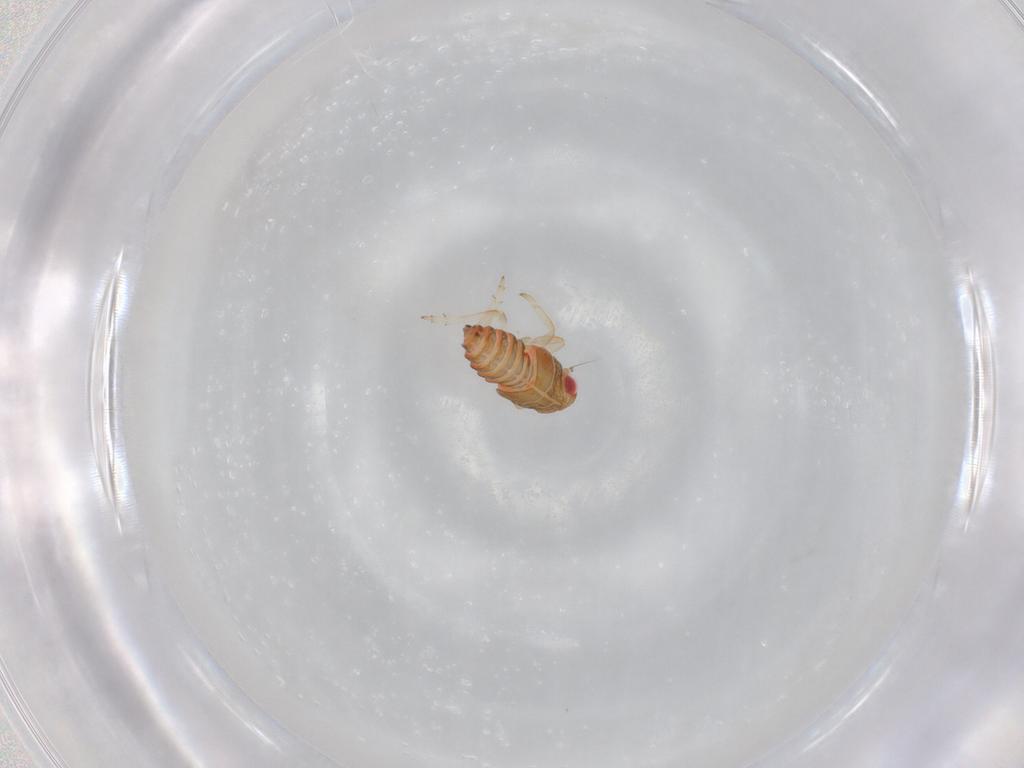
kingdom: Animalia
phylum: Arthropoda
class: Insecta
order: Hemiptera
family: Issidae
